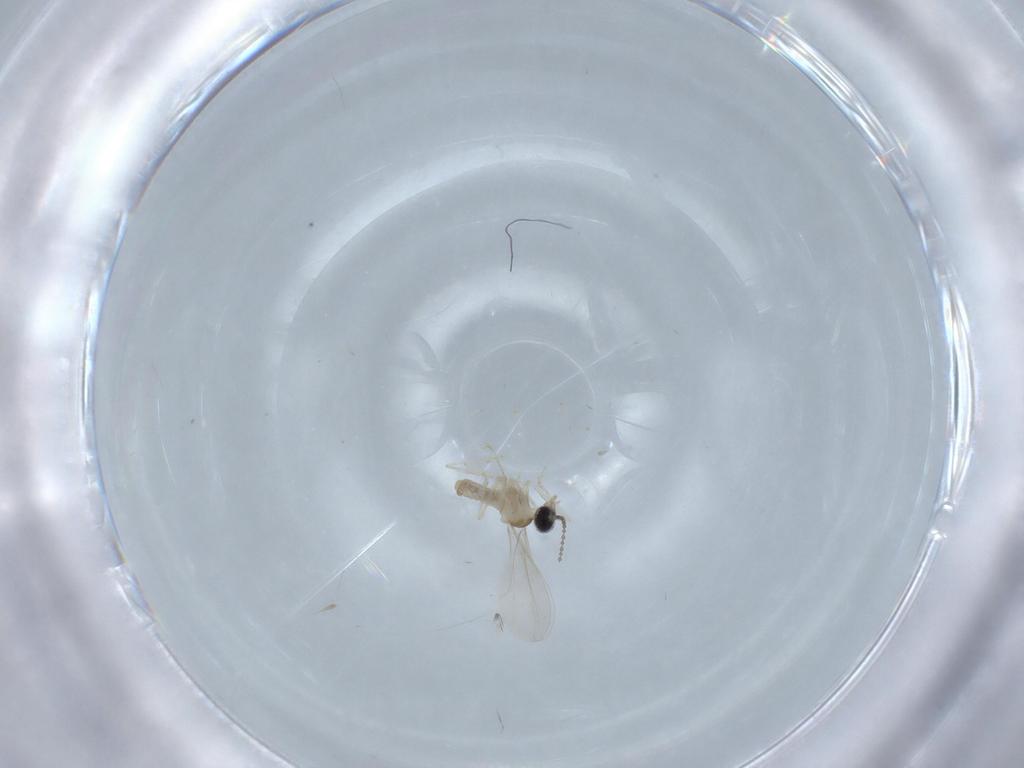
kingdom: Animalia
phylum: Arthropoda
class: Insecta
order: Diptera
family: Cecidomyiidae
